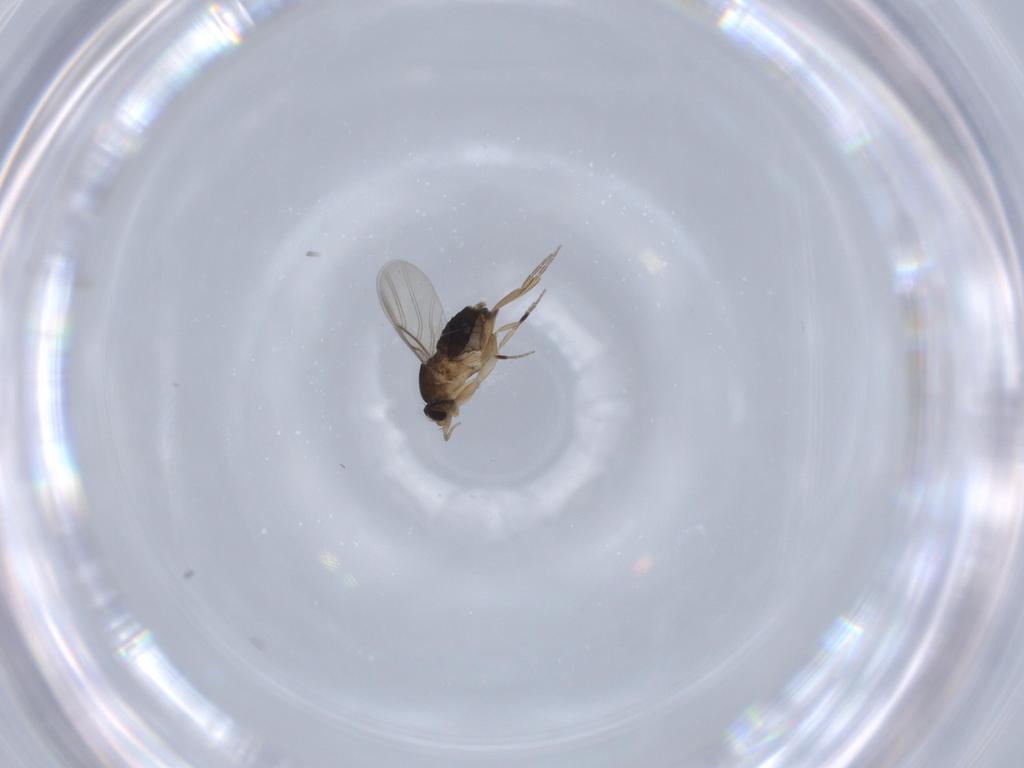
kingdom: Animalia
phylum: Arthropoda
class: Insecta
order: Diptera
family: Phoridae
